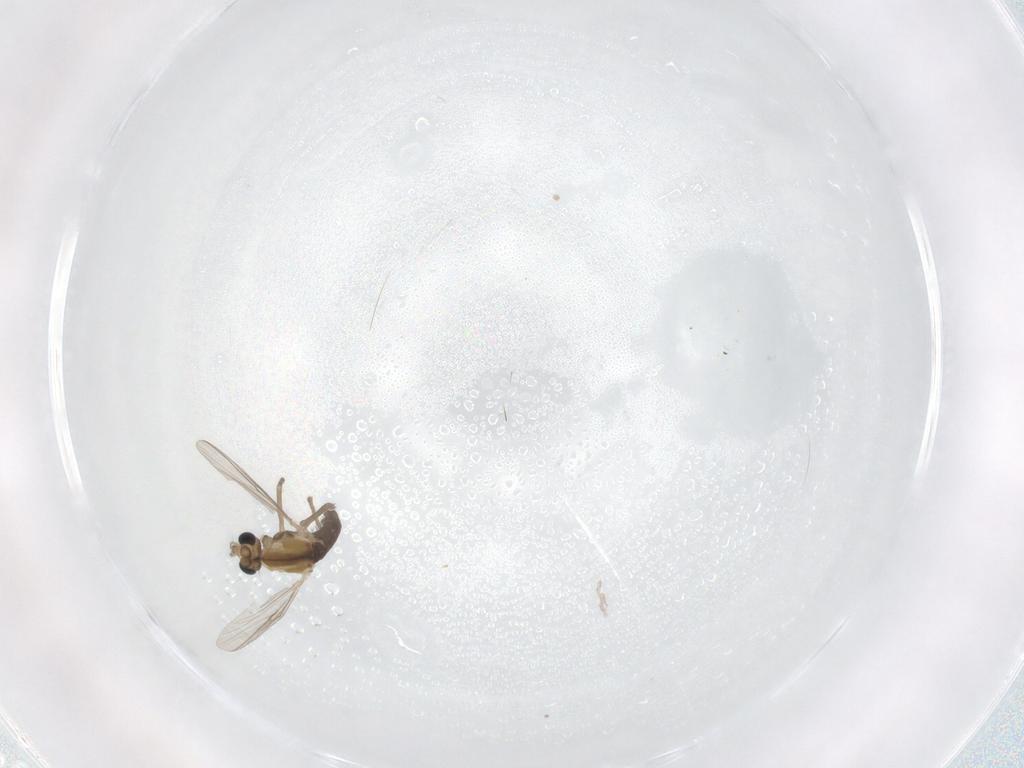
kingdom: Animalia
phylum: Arthropoda
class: Insecta
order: Diptera
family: Chironomidae
